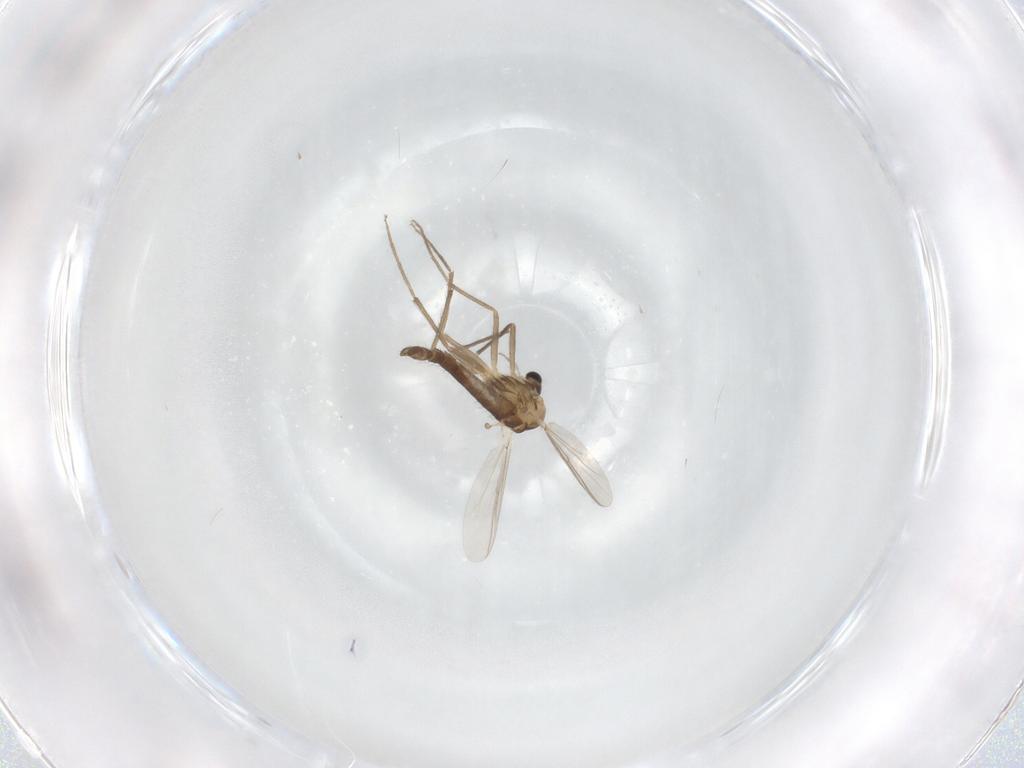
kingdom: Animalia
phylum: Arthropoda
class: Insecta
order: Diptera
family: Chironomidae
